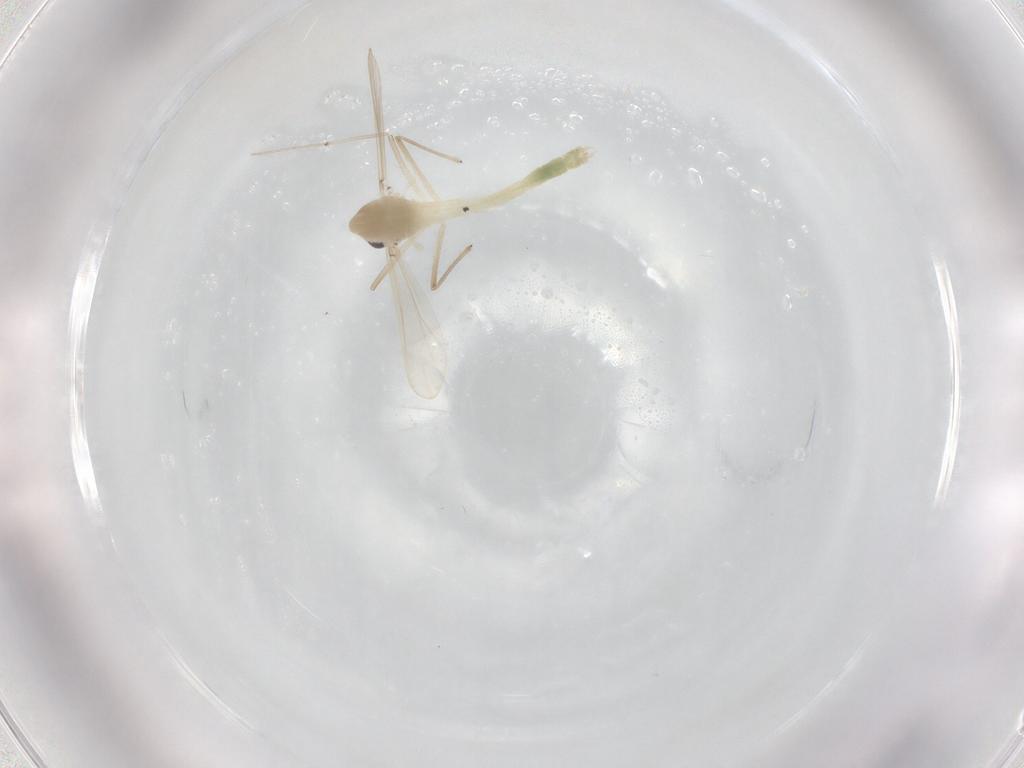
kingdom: Animalia
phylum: Arthropoda
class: Insecta
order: Diptera
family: Chironomidae
